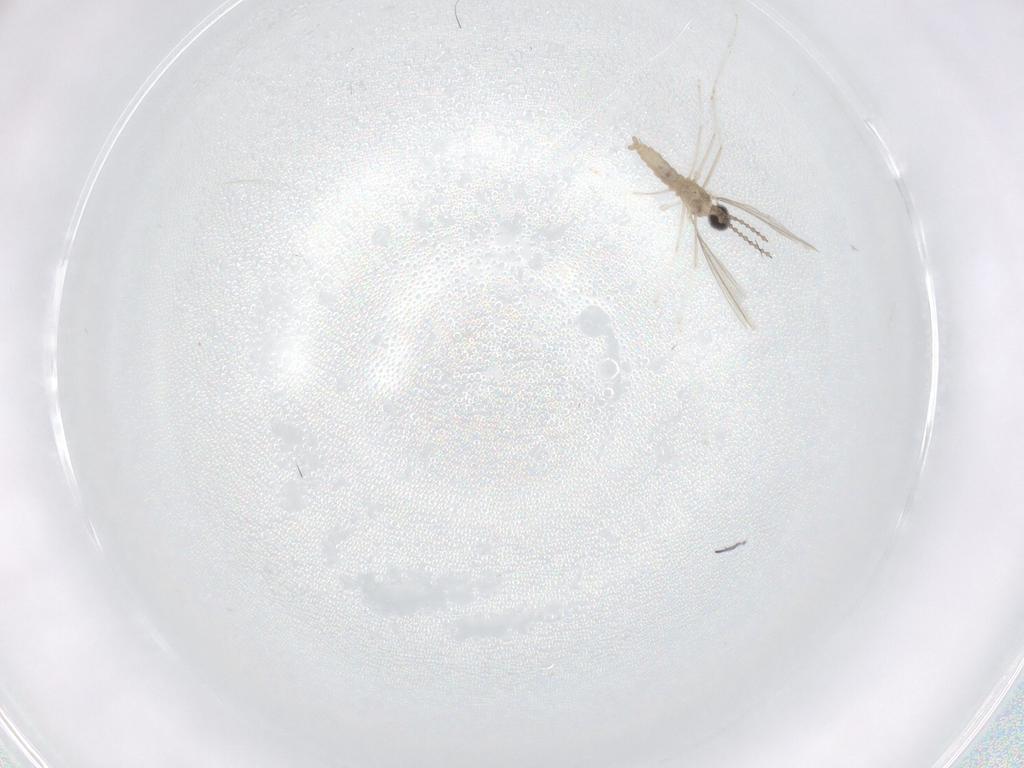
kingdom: Animalia
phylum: Arthropoda
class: Insecta
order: Diptera
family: Cecidomyiidae
